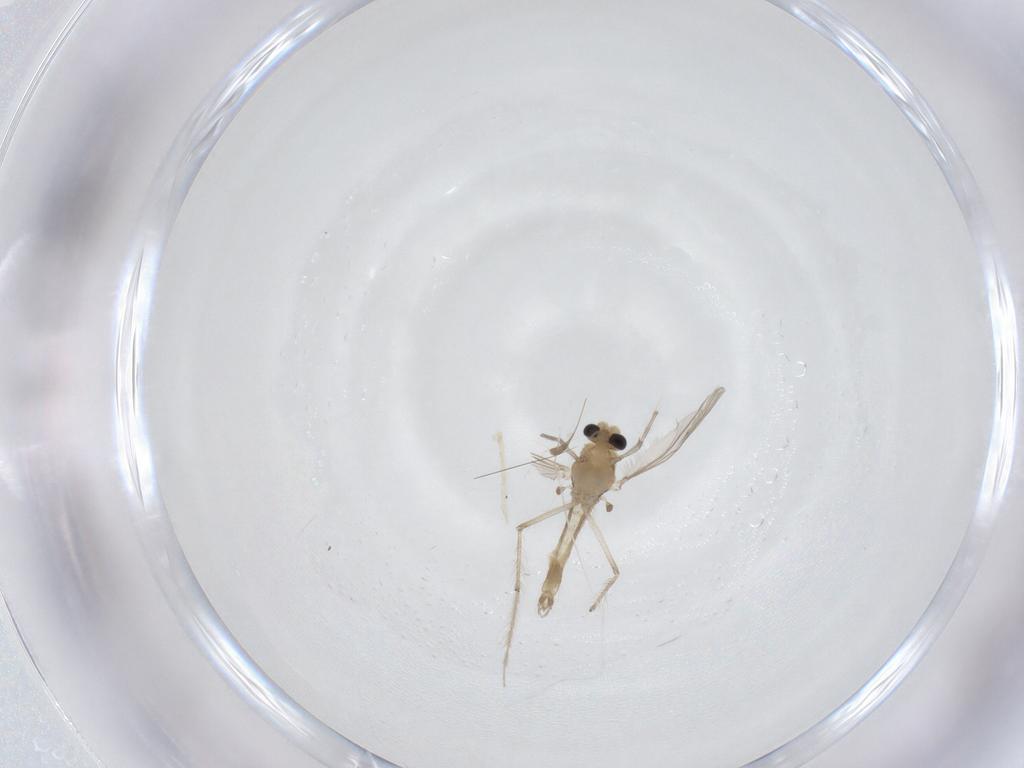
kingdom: Animalia
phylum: Arthropoda
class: Insecta
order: Diptera
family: Chironomidae
